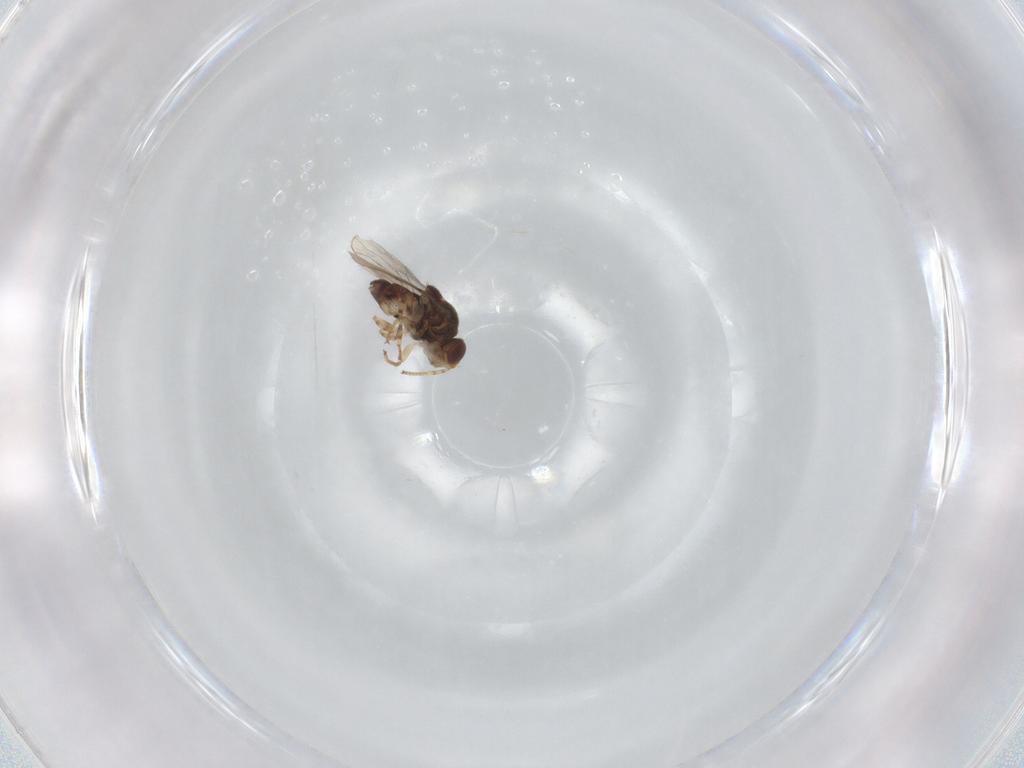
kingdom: Animalia
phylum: Arthropoda
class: Insecta
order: Diptera
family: Chloropidae
